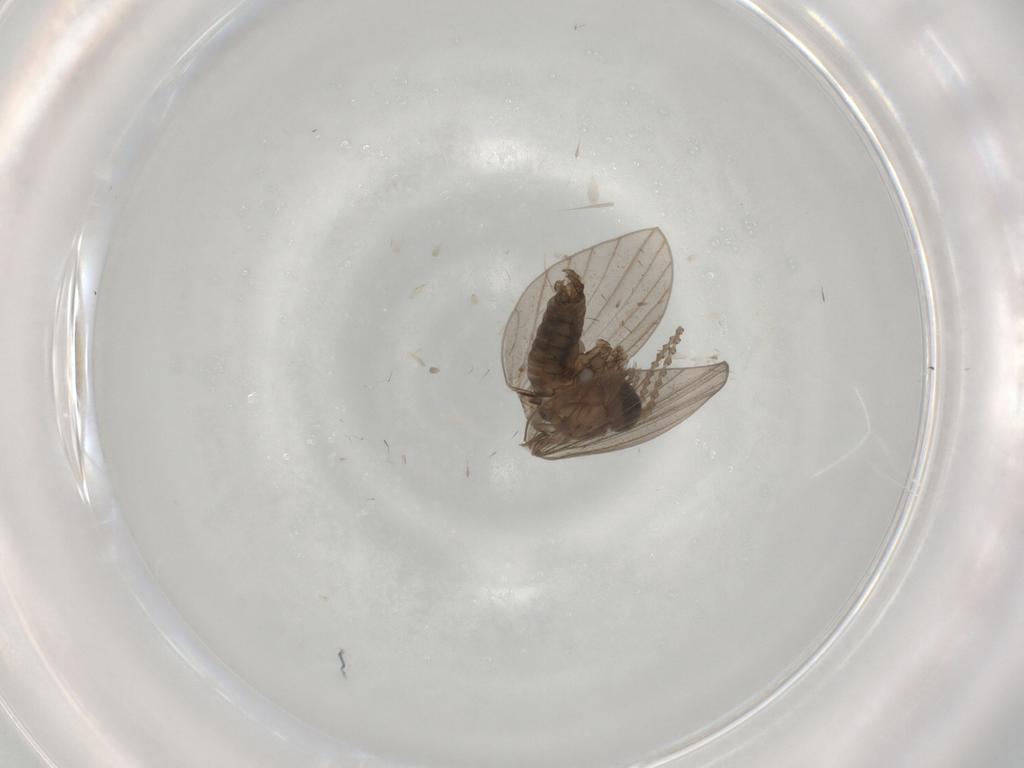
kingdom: Animalia
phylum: Arthropoda
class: Insecta
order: Diptera
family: Psychodidae
